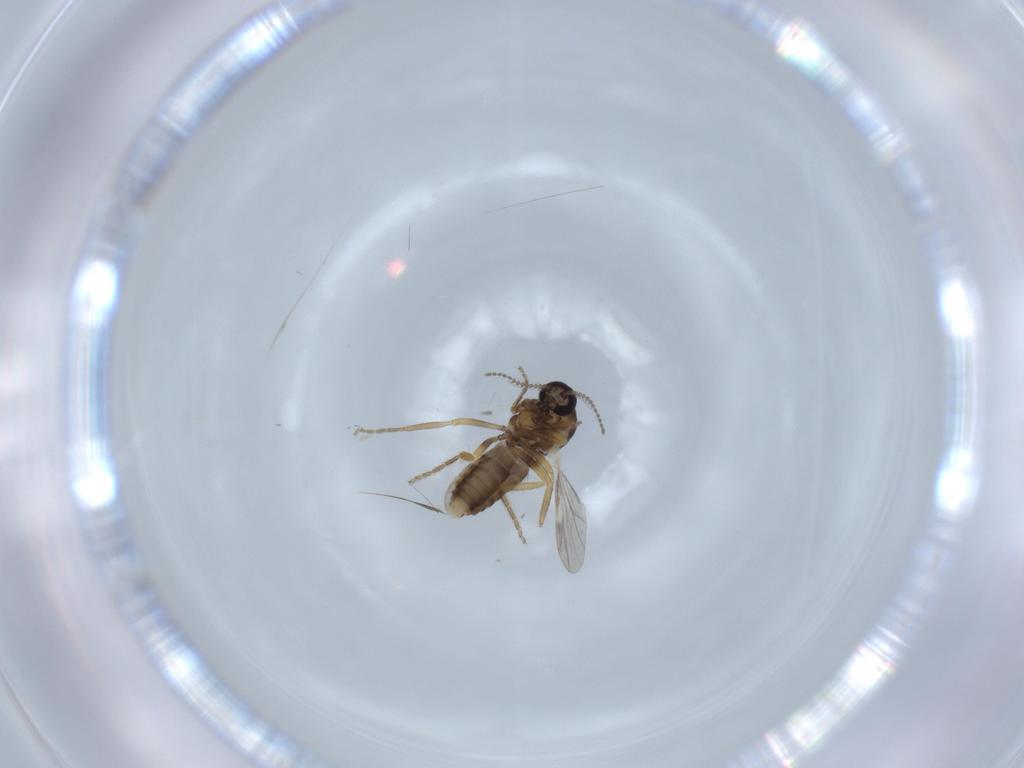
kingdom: Animalia
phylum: Arthropoda
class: Insecta
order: Diptera
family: Ceratopogonidae
